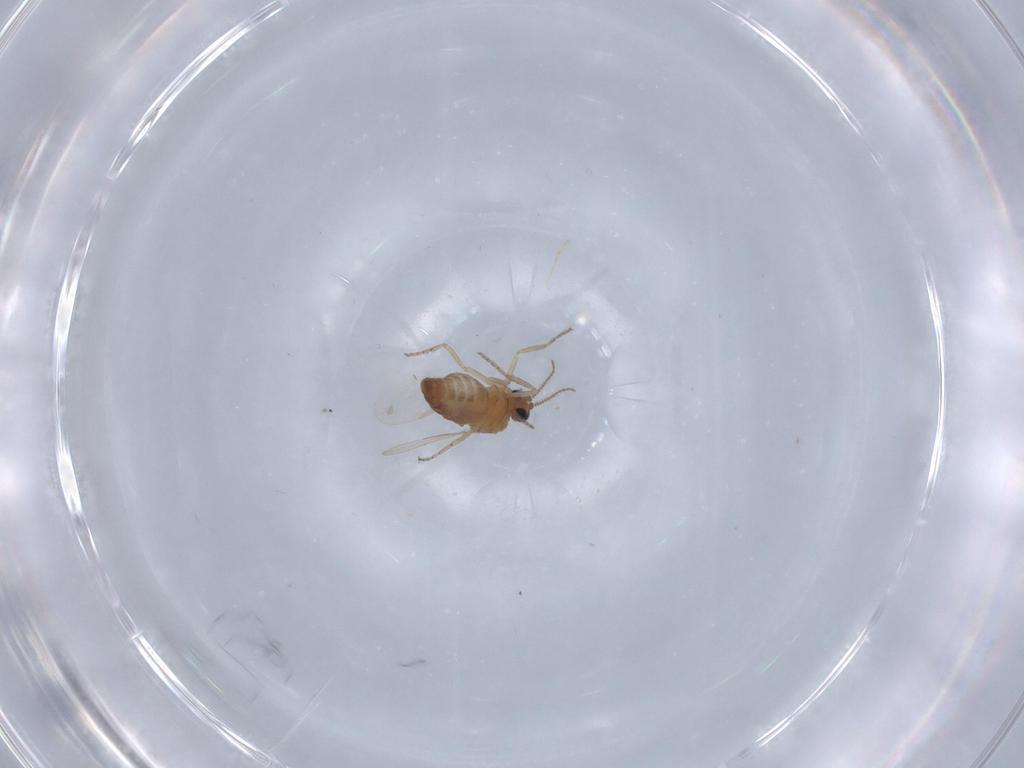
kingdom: Animalia
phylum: Arthropoda
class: Insecta
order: Diptera
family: Ceratopogonidae
